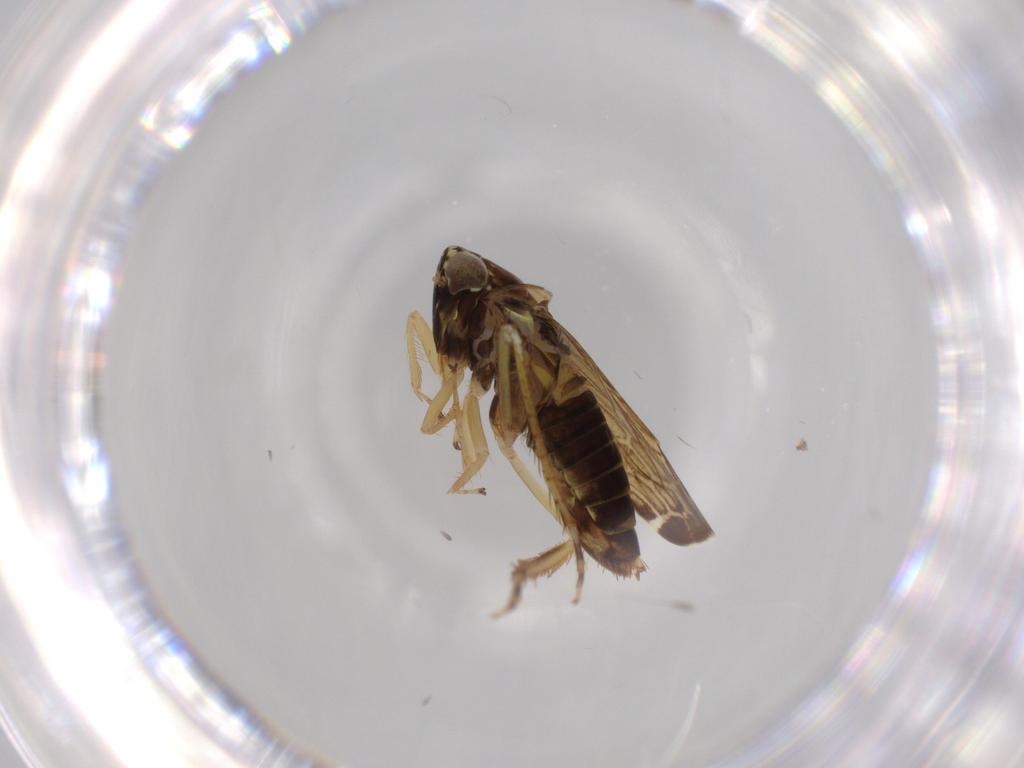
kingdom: Animalia
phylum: Arthropoda
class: Insecta
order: Hemiptera
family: Cicadellidae
